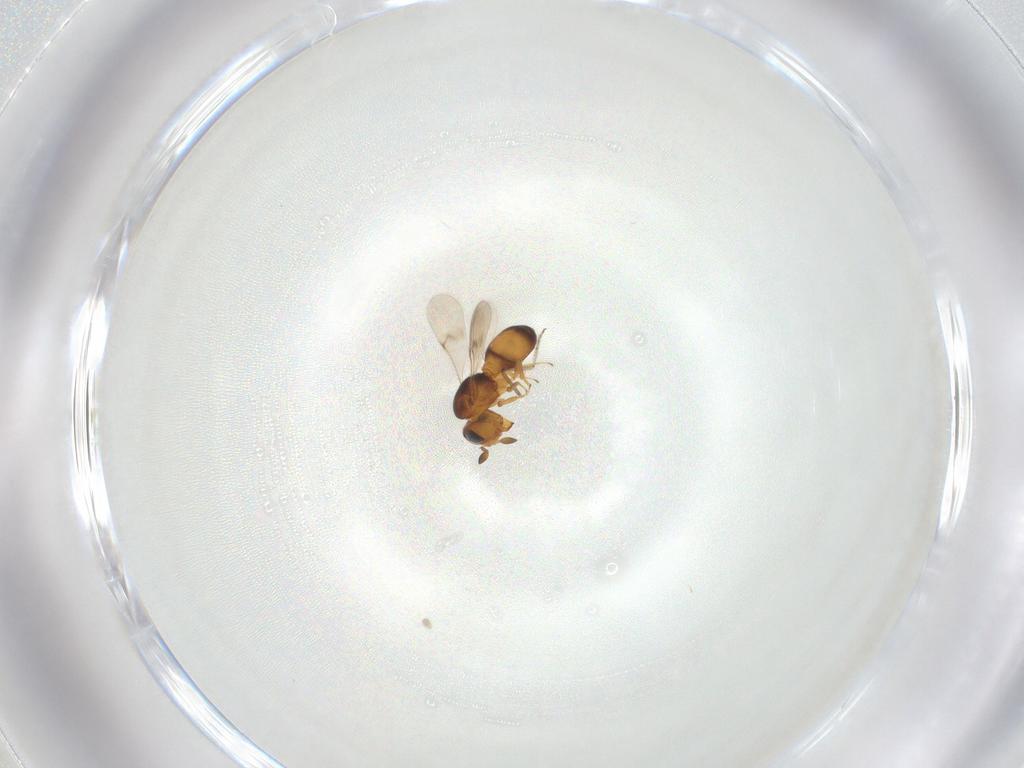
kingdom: Animalia
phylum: Arthropoda
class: Insecta
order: Hymenoptera
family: Scelionidae
